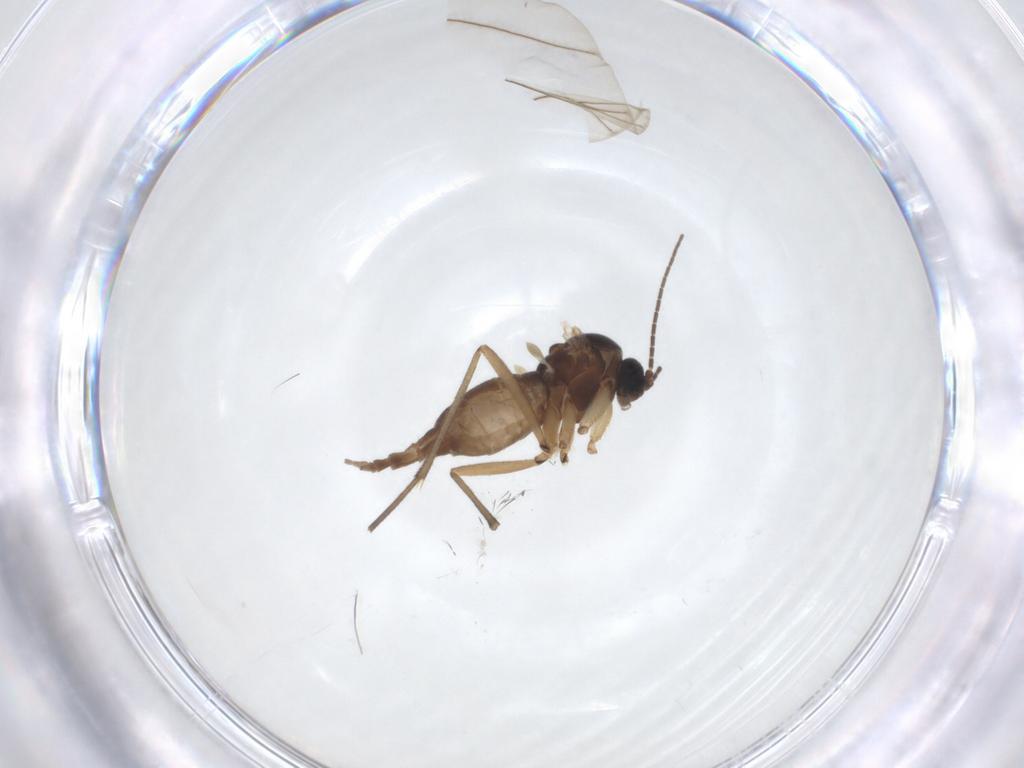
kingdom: Animalia
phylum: Arthropoda
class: Insecta
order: Diptera
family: Sciaridae
